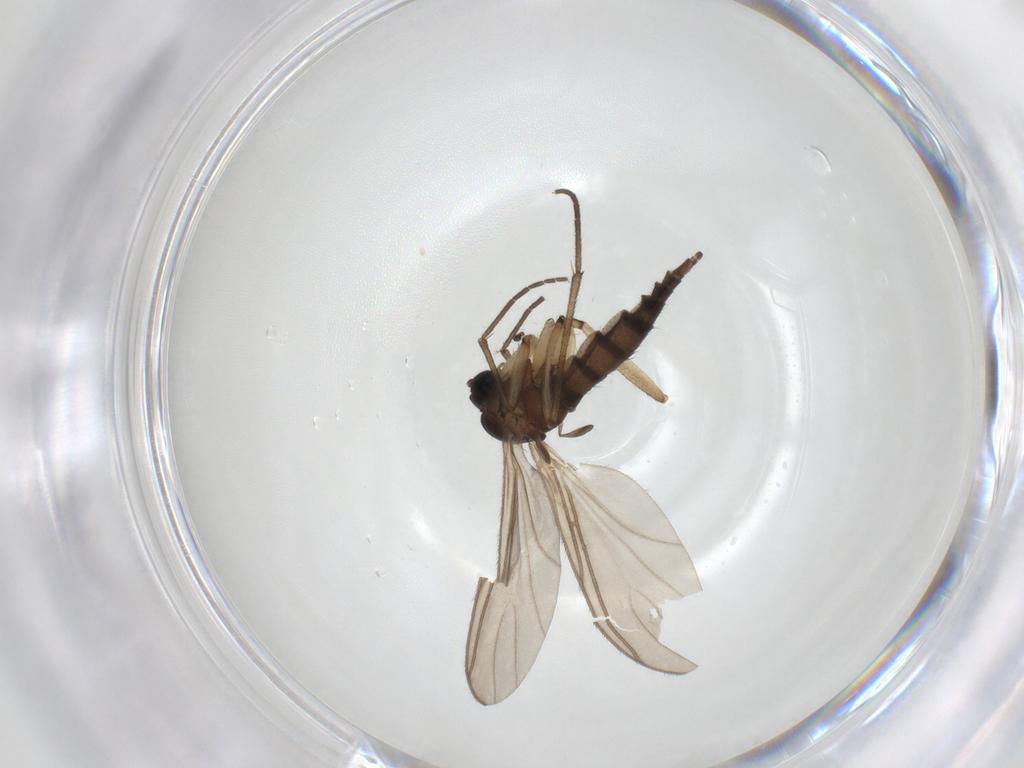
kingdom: Animalia
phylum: Arthropoda
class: Insecta
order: Diptera
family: Sciaridae
